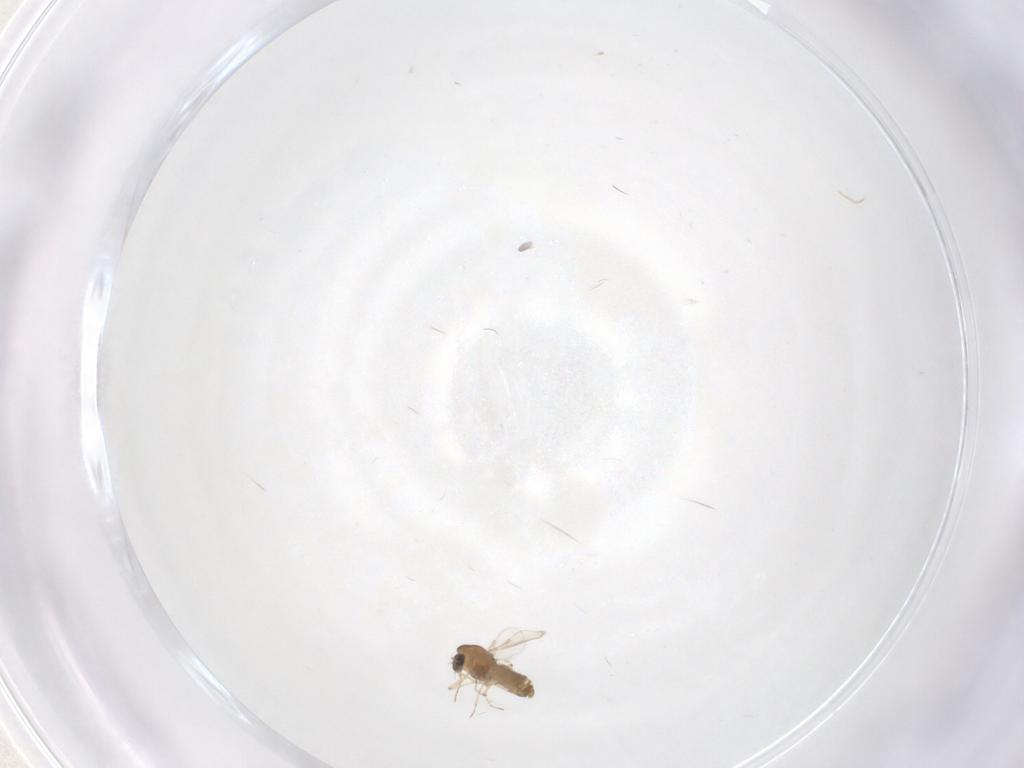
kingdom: Animalia
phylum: Arthropoda
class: Insecta
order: Diptera
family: Chironomidae
